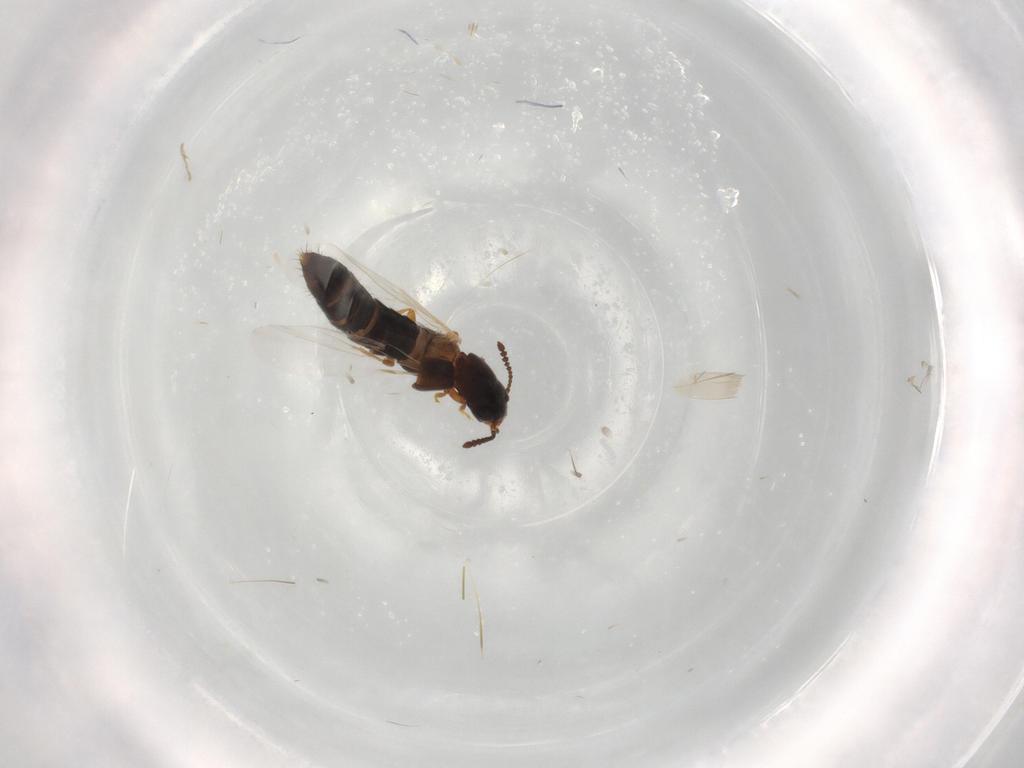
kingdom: Animalia
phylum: Arthropoda
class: Insecta
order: Coleoptera
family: Staphylinidae
